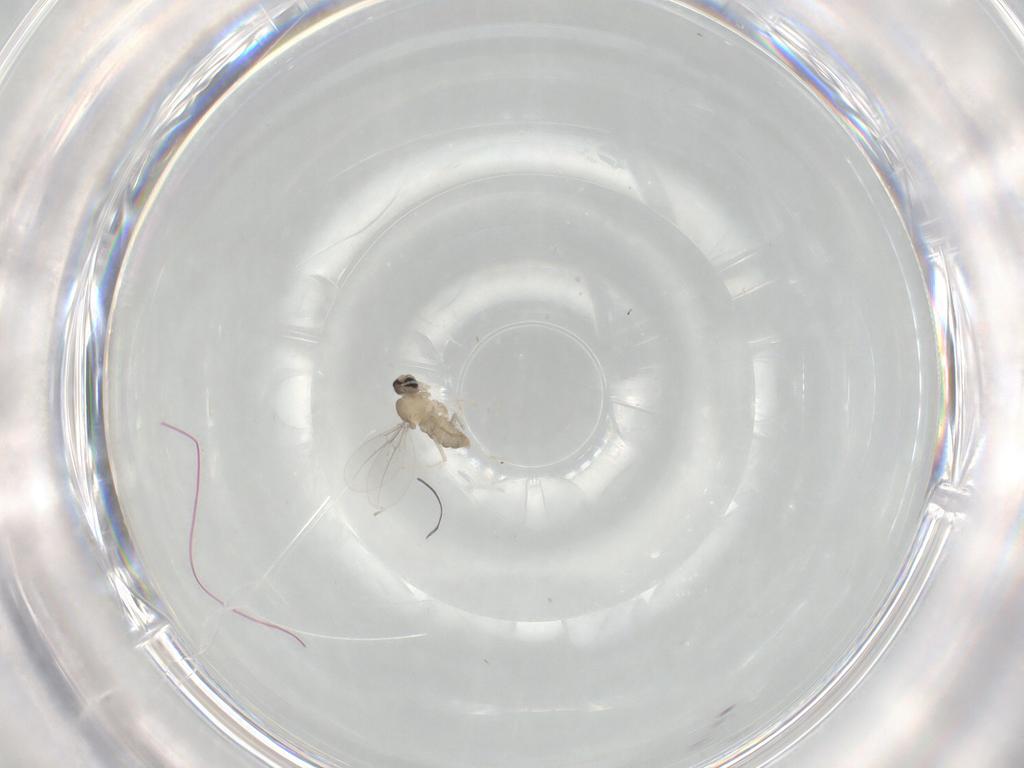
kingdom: Animalia
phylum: Arthropoda
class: Insecta
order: Diptera
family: Cecidomyiidae
